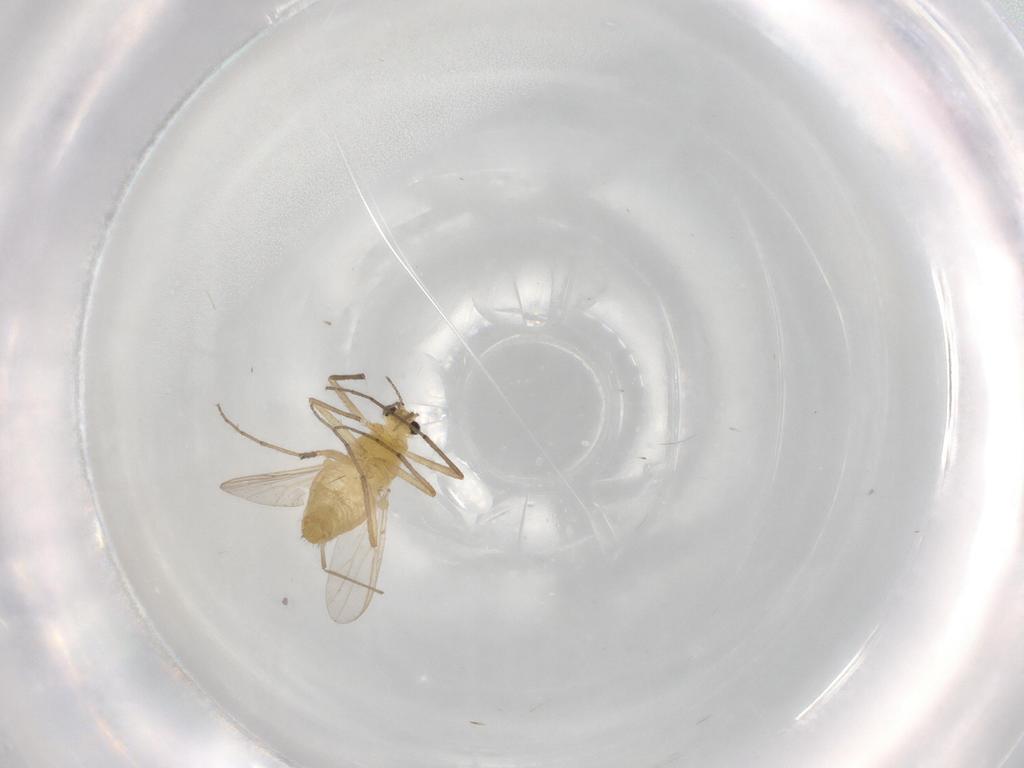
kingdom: Animalia
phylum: Arthropoda
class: Insecta
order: Diptera
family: Chironomidae
